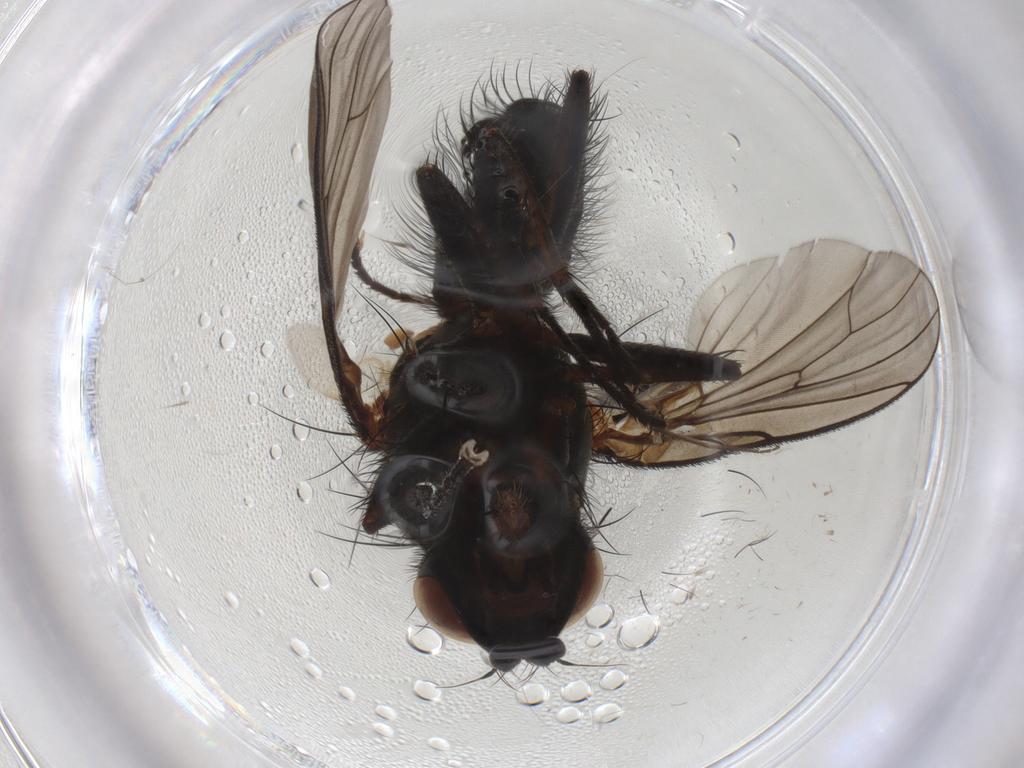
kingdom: Animalia
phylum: Arthropoda
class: Insecta
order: Diptera
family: Anthomyiidae
